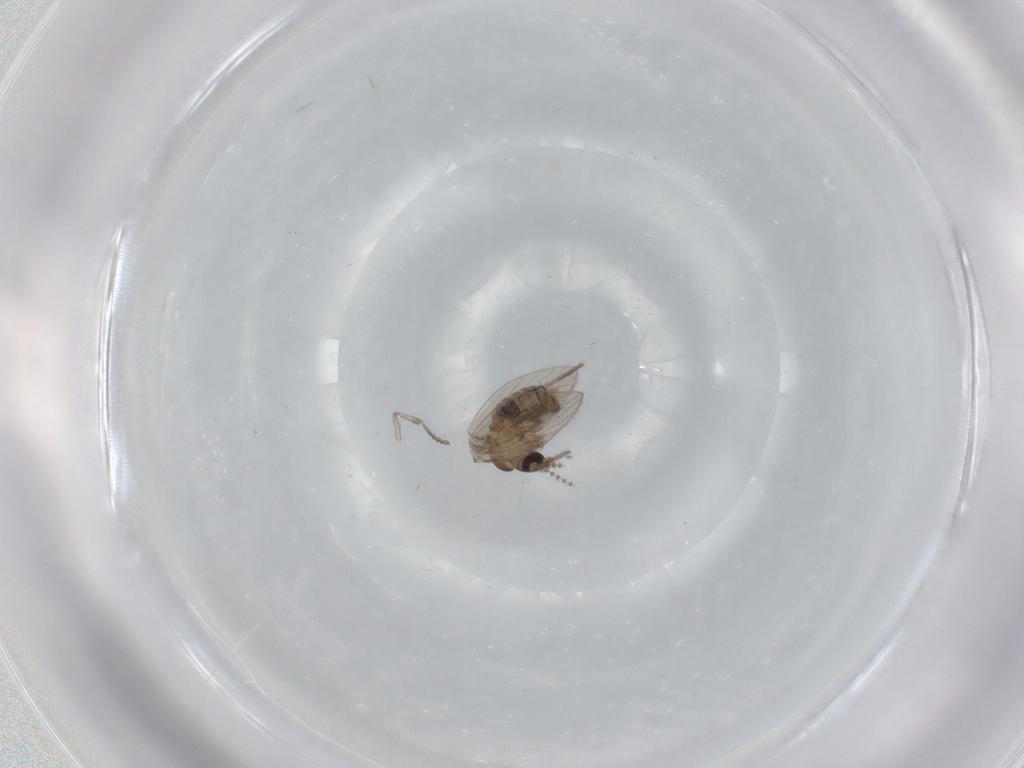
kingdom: Animalia
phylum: Arthropoda
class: Insecta
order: Diptera
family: Psychodidae
